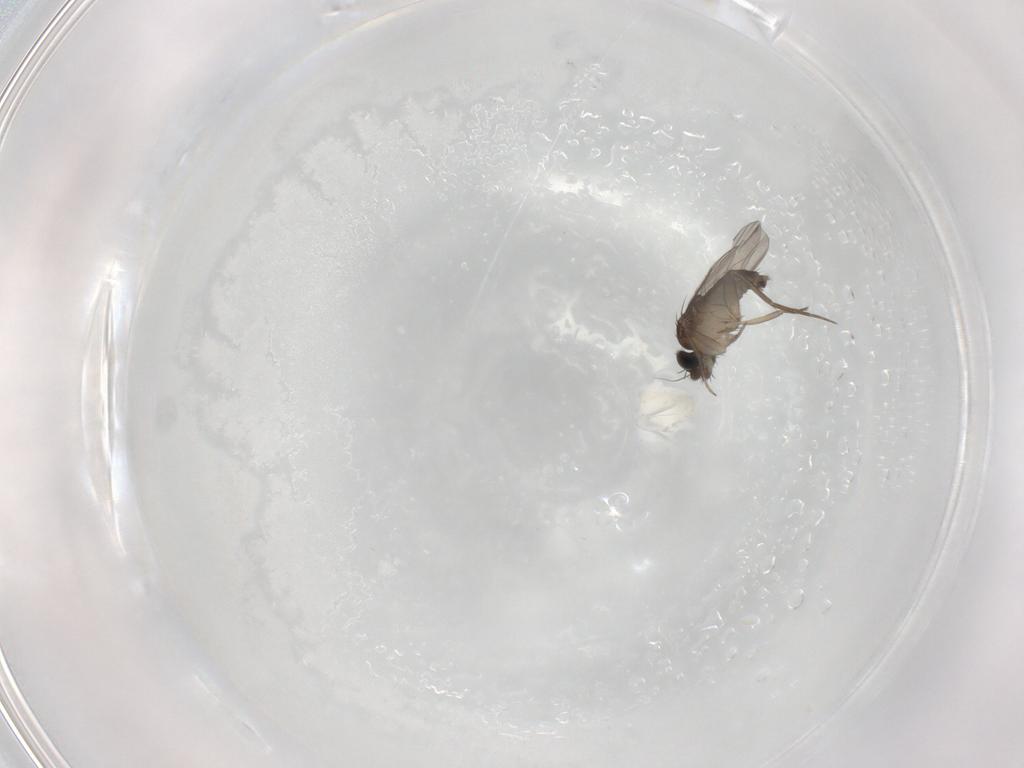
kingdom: Animalia
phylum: Arthropoda
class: Insecta
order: Diptera
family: Phoridae
